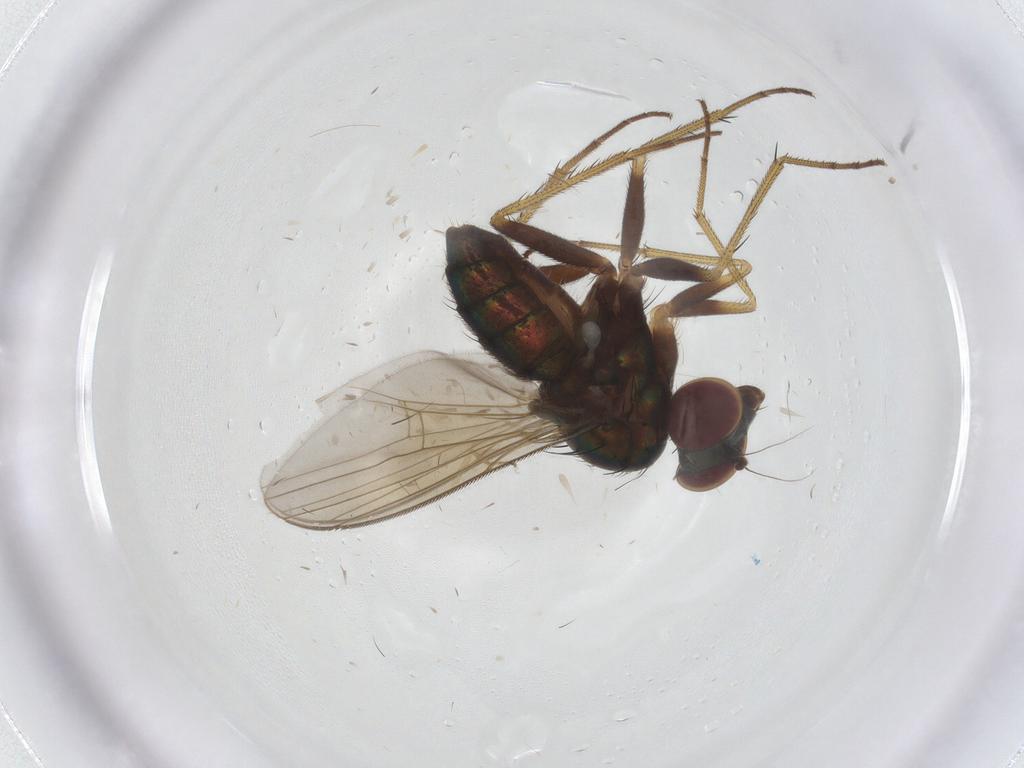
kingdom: Animalia
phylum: Arthropoda
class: Insecta
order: Diptera
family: Dolichopodidae
